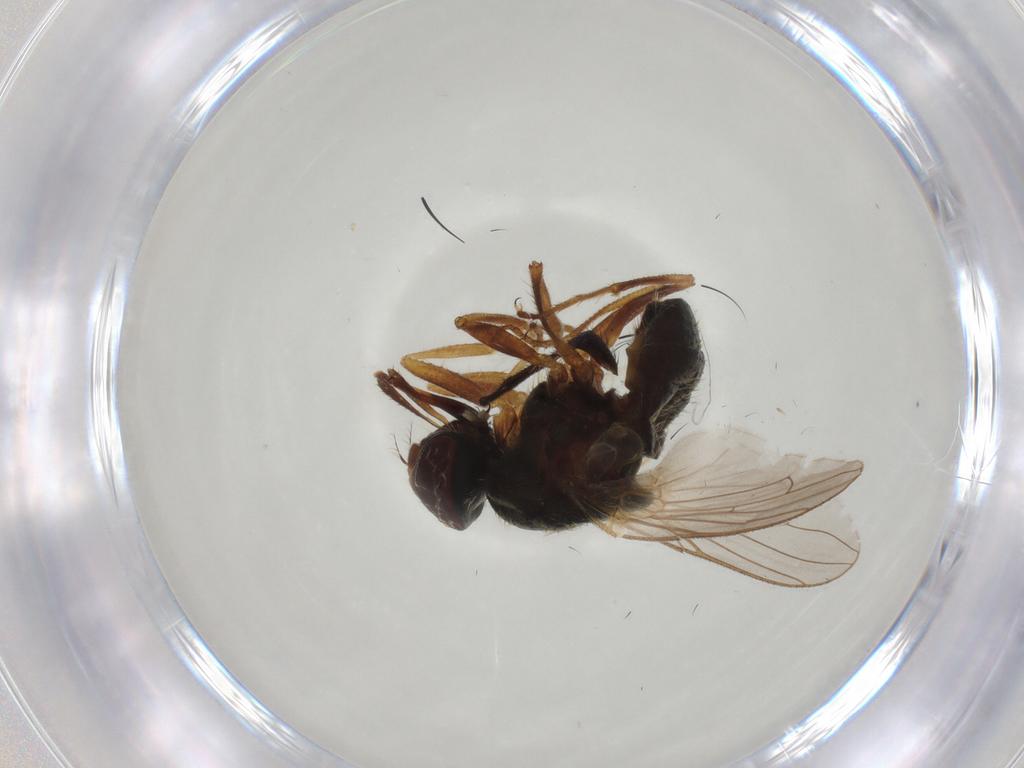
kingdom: Animalia
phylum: Arthropoda
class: Insecta
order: Diptera
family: Muscidae
